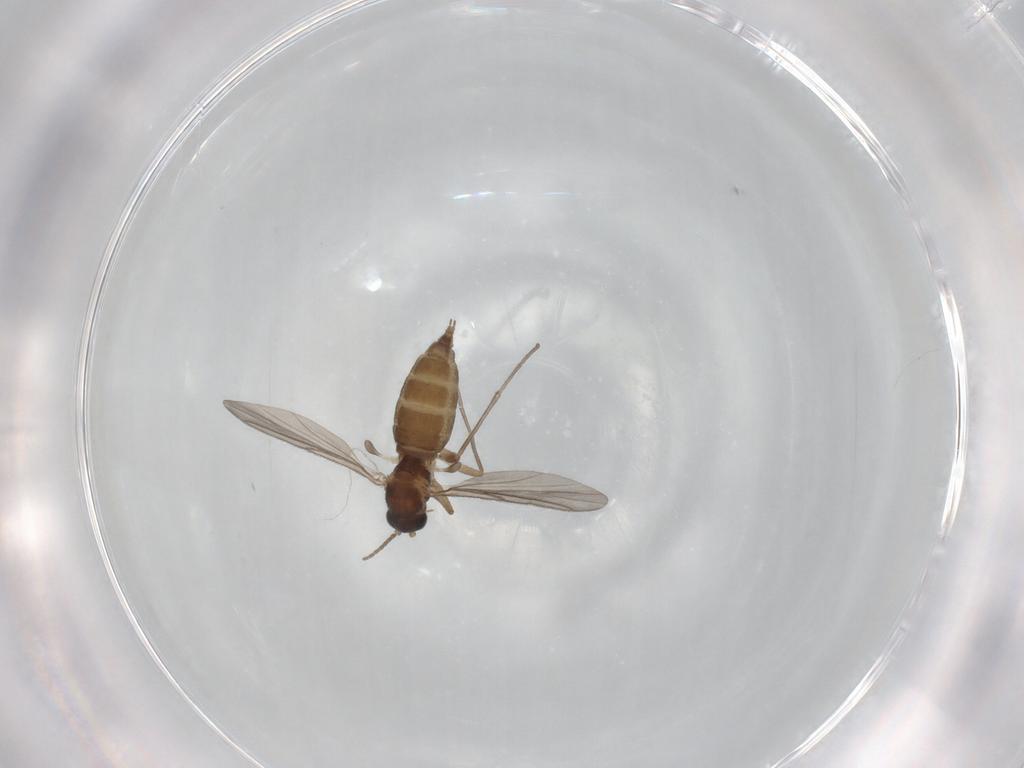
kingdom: Animalia
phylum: Arthropoda
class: Insecta
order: Diptera
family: Sciaridae
